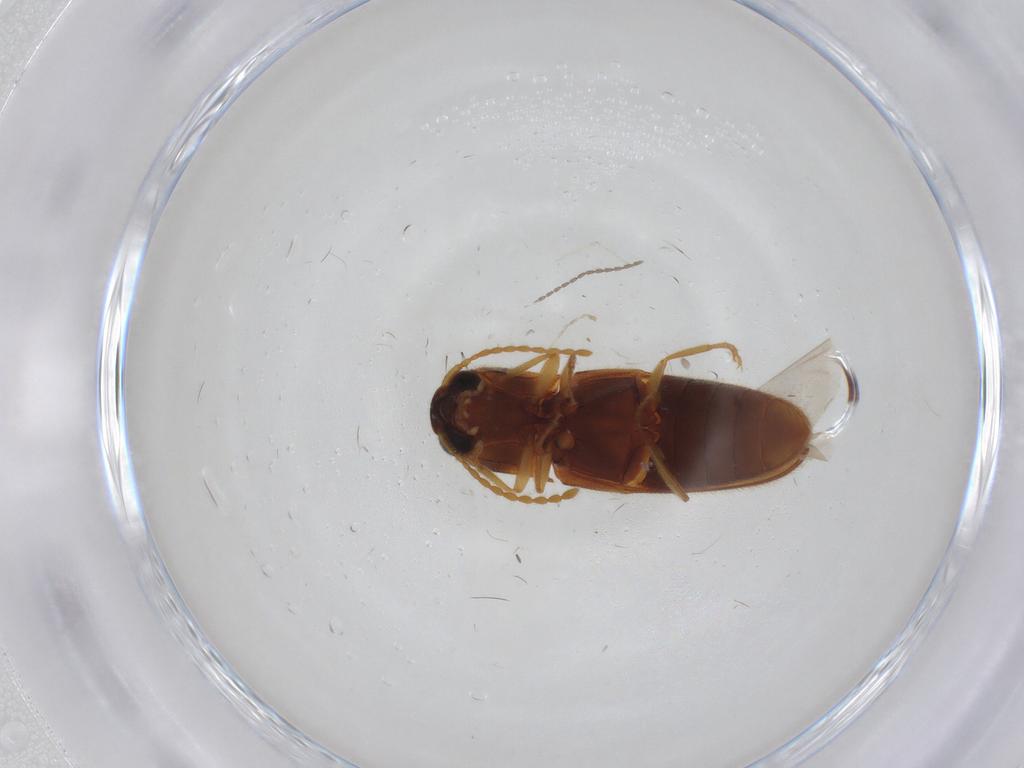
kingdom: Animalia
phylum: Arthropoda
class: Insecta
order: Coleoptera
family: Elateridae
